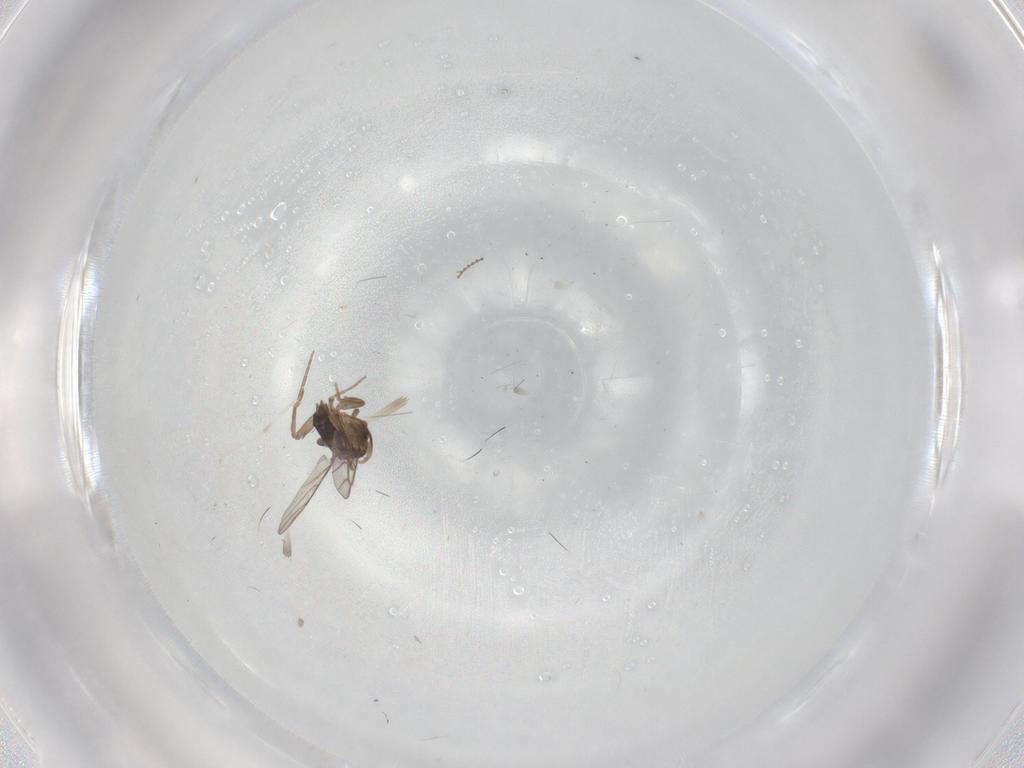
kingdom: Animalia
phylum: Arthropoda
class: Insecta
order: Diptera
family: Phoridae
